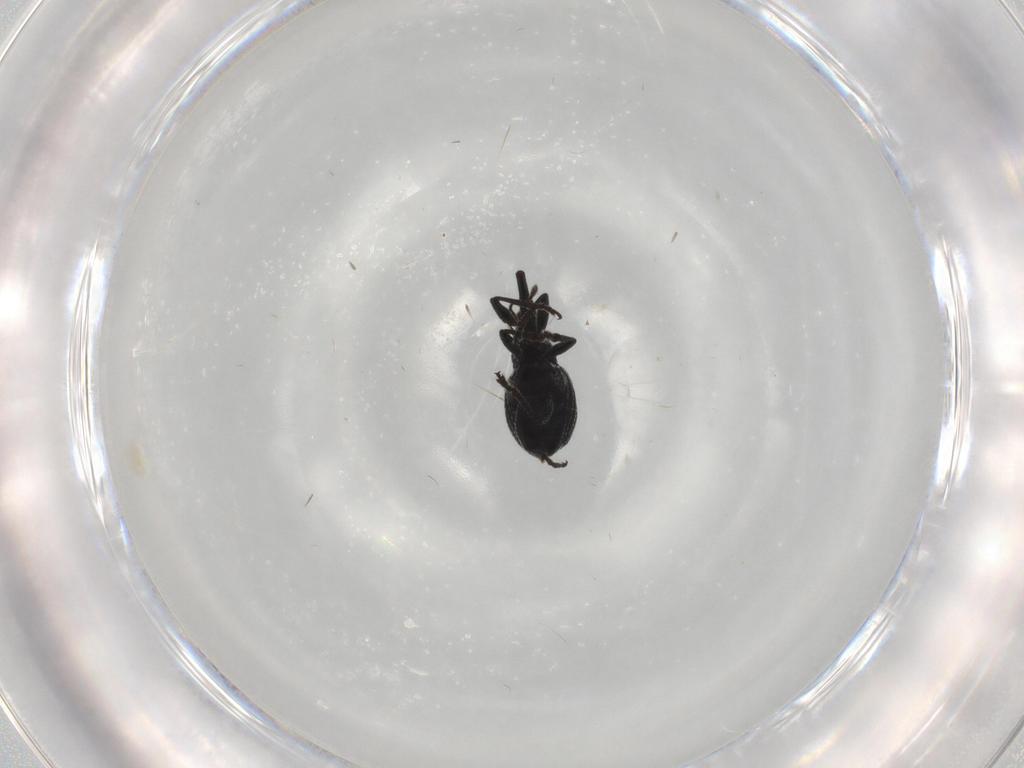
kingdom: Animalia
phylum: Arthropoda
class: Insecta
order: Coleoptera
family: Brentidae
